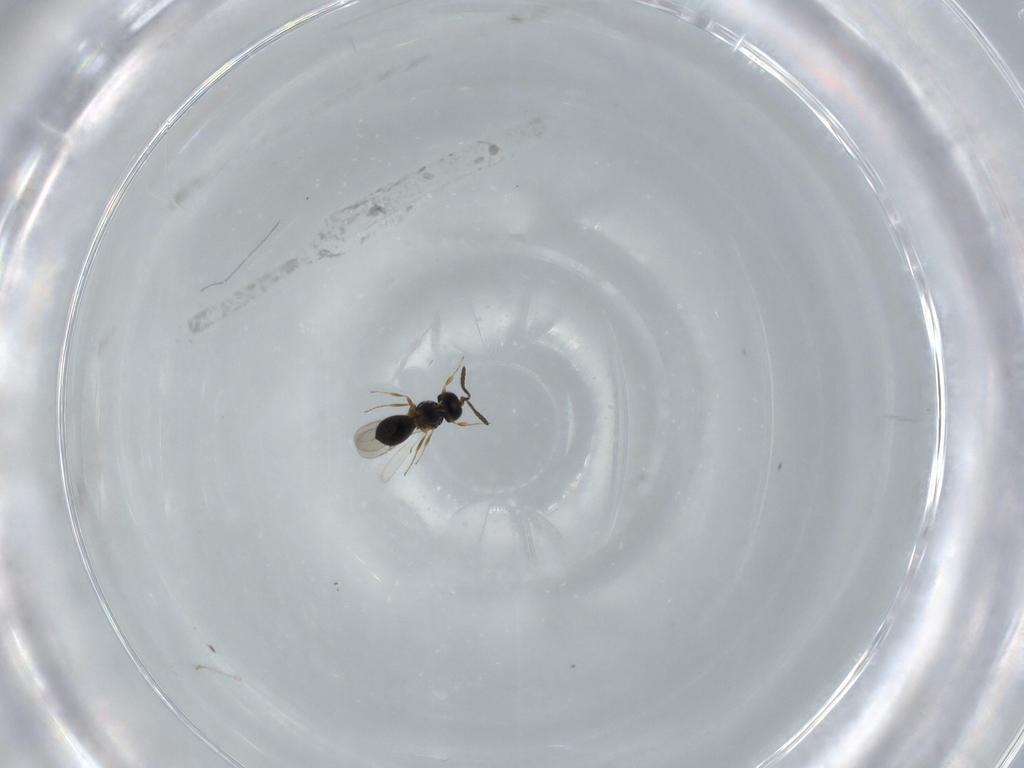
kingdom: Animalia
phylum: Arthropoda
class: Insecta
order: Hymenoptera
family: Scelionidae
